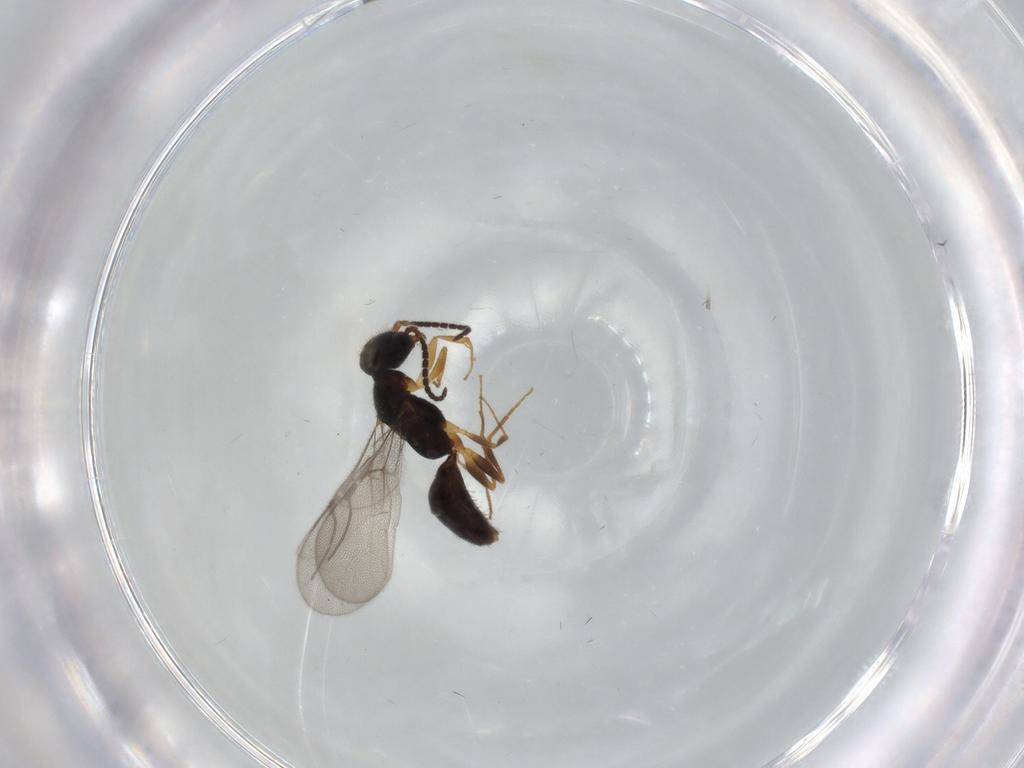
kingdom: Animalia
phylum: Arthropoda
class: Insecta
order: Hymenoptera
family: Bethylidae
